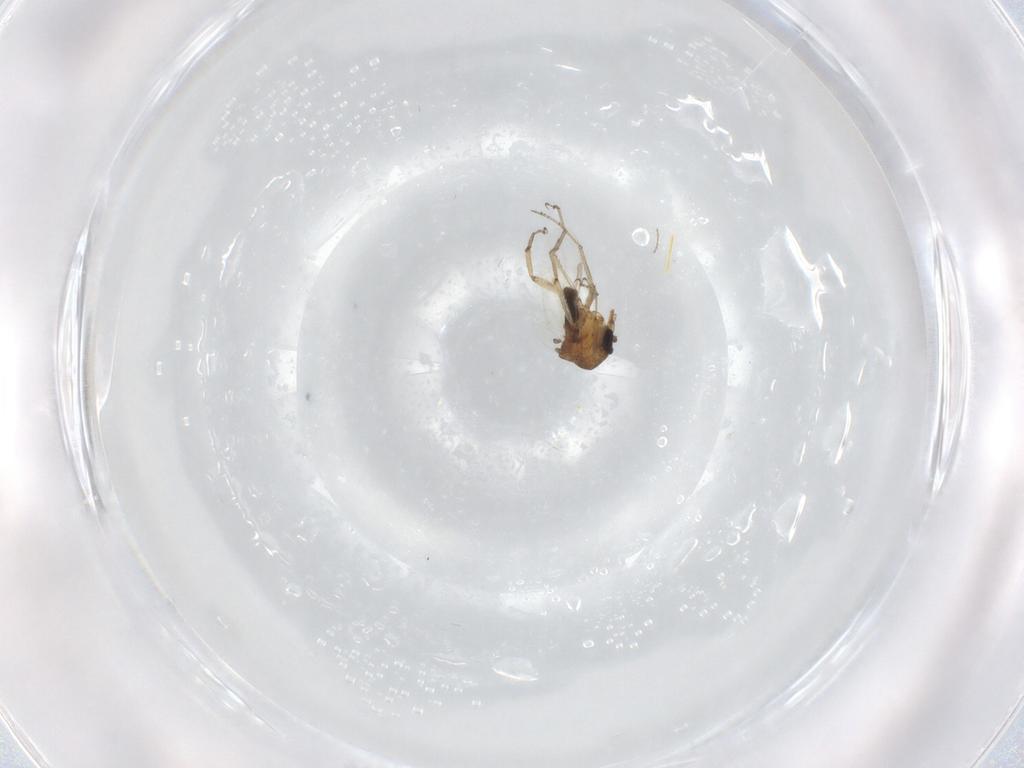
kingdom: Animalia
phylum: Arthropoda
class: Insecta
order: Diptera
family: Ceratopogonidae
